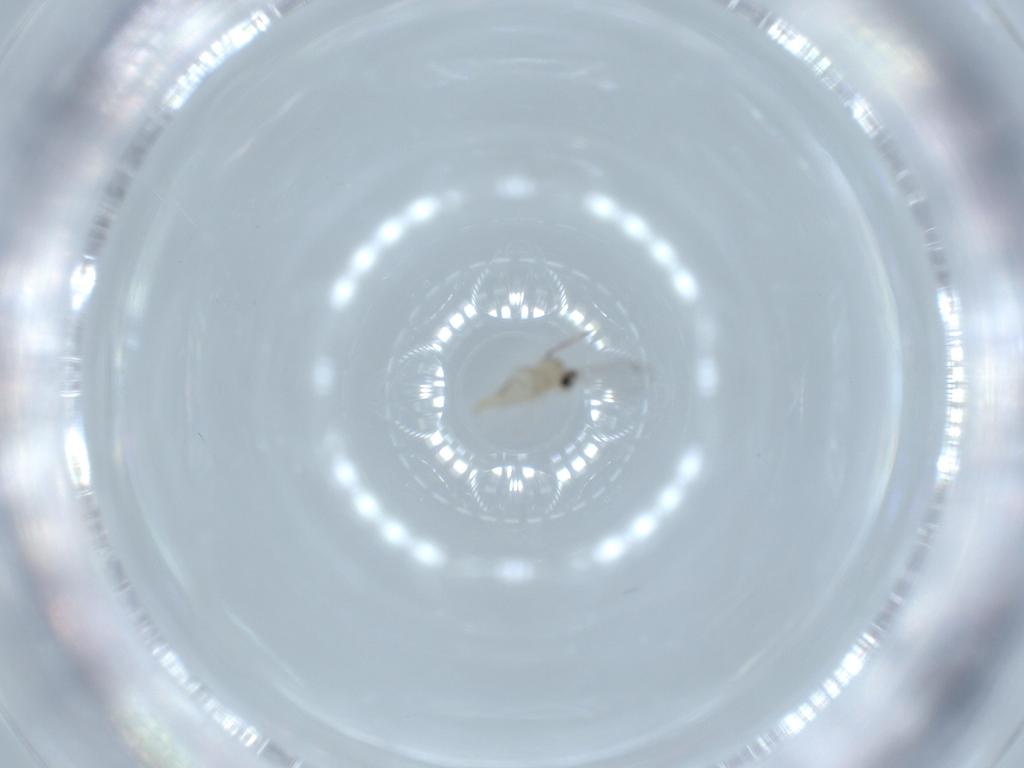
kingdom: Animalia
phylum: Arthropoda
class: Insecta
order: Diptera
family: Cecidomyiidae
